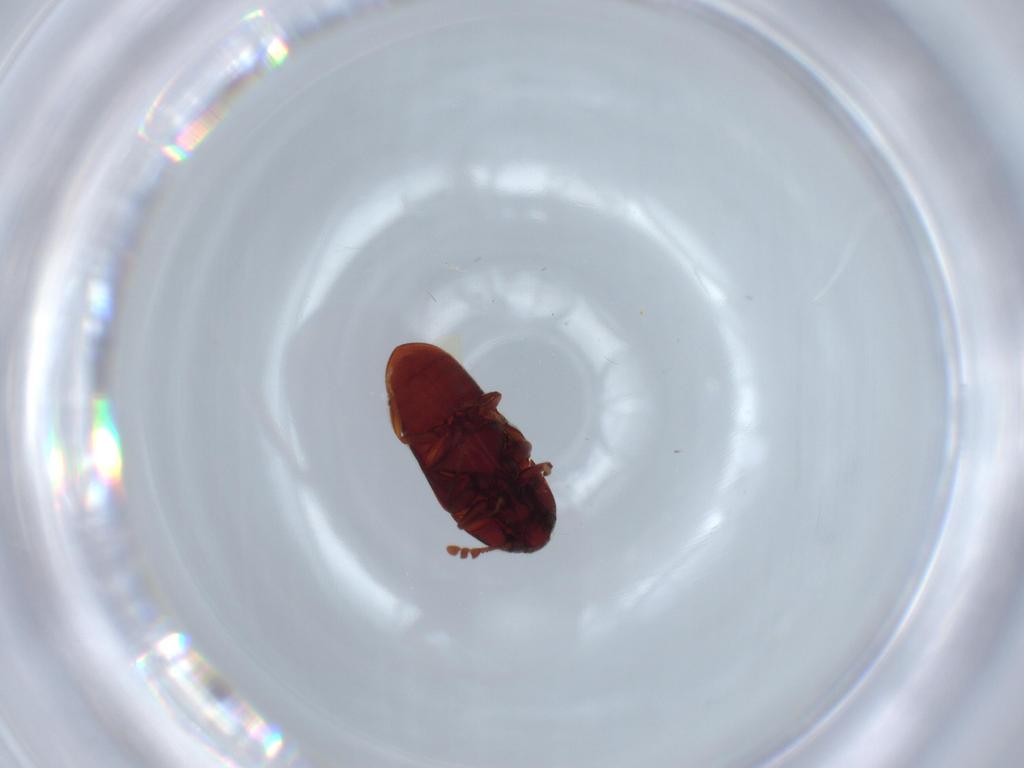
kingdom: Animalia
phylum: Arthropoda
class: Insecta
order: Coleoptera
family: Throscidae
